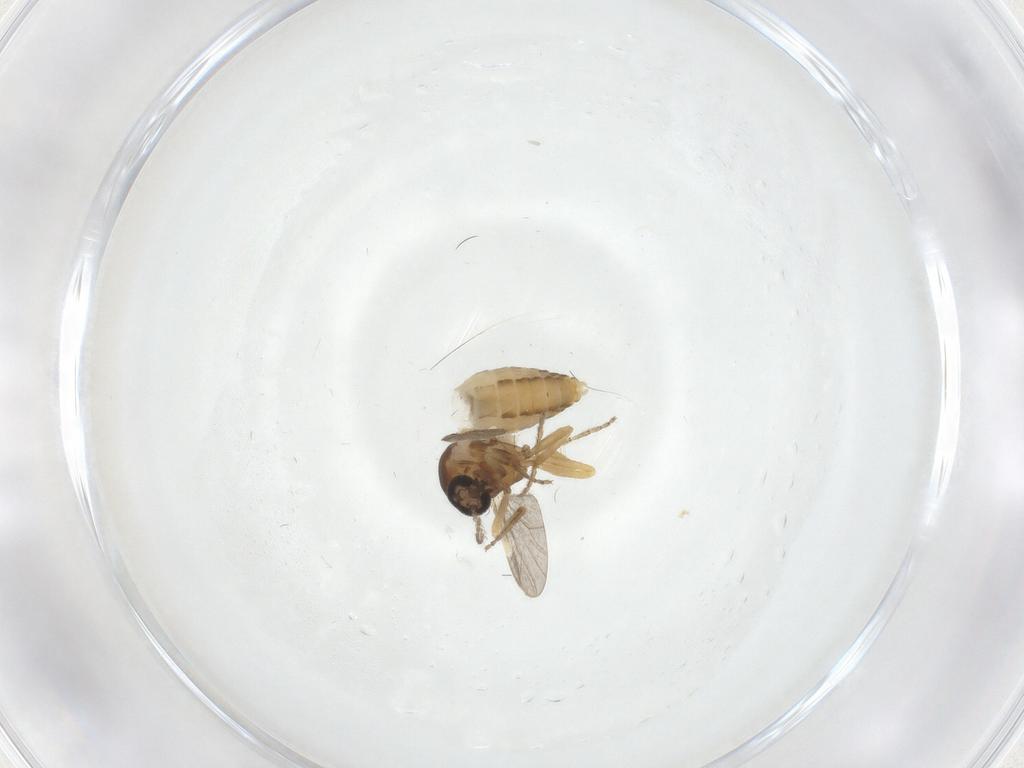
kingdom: Animalia
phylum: Arthropoda
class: Insecta
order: Diptera
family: Ceratopogonidae
